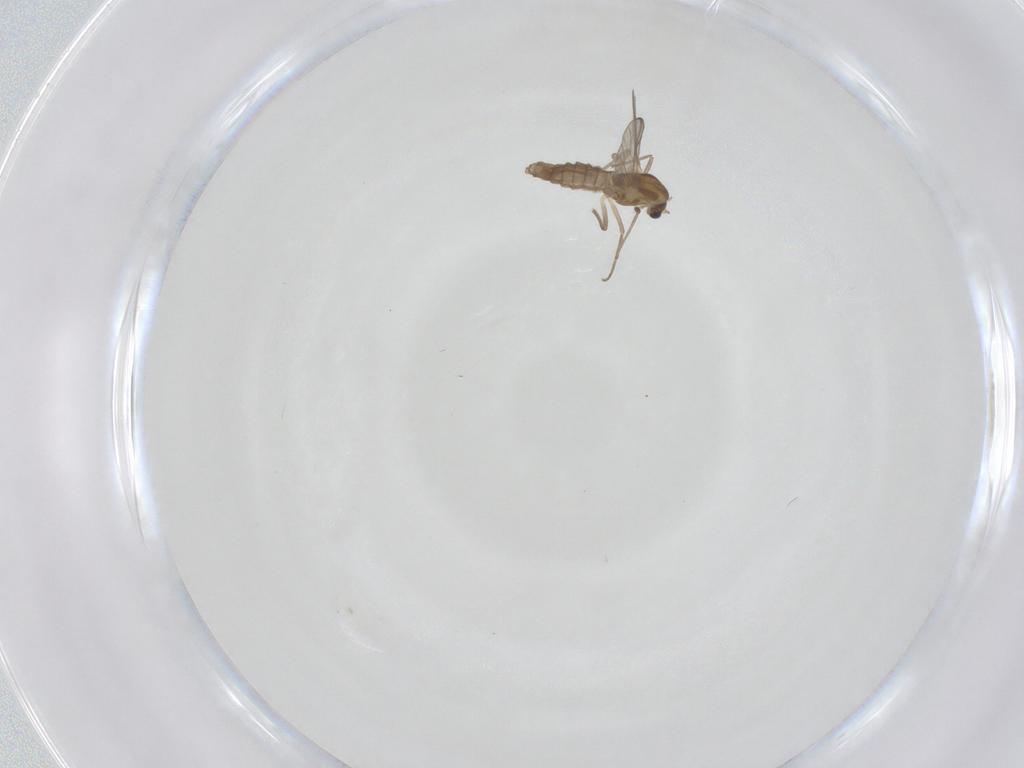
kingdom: Animalia
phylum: Arthropoda
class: Insecta
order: Diptera
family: Chironomidae
